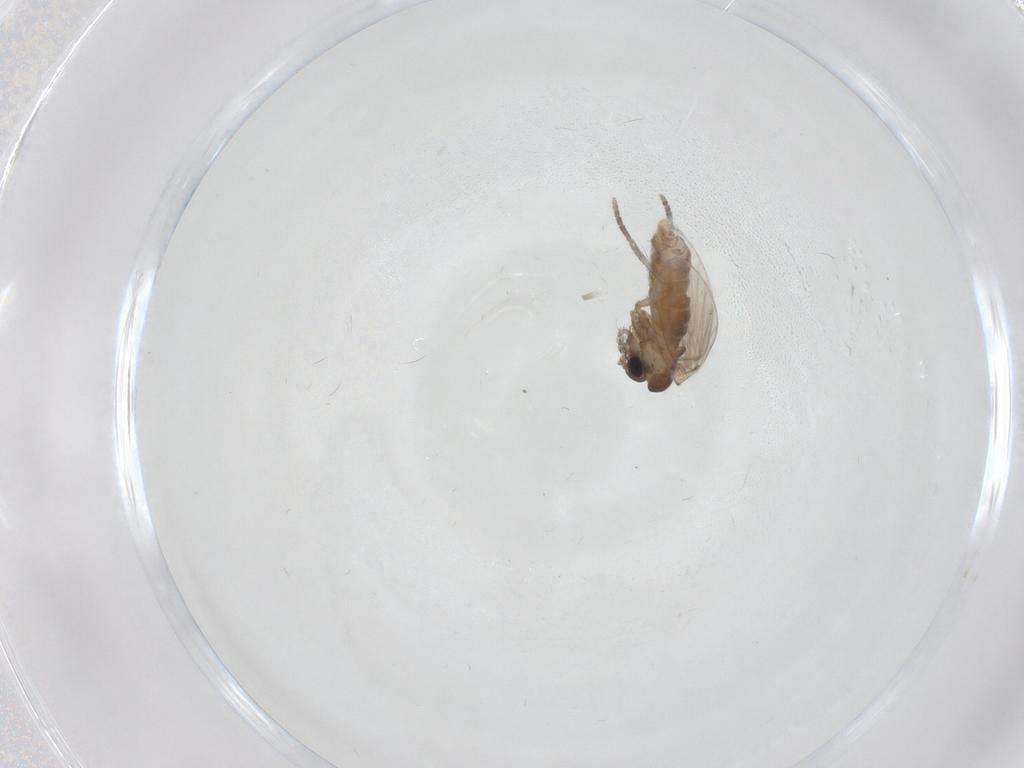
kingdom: Animalia
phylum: Arthropoda
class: Insecta
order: Diptera
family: Psychodidae
